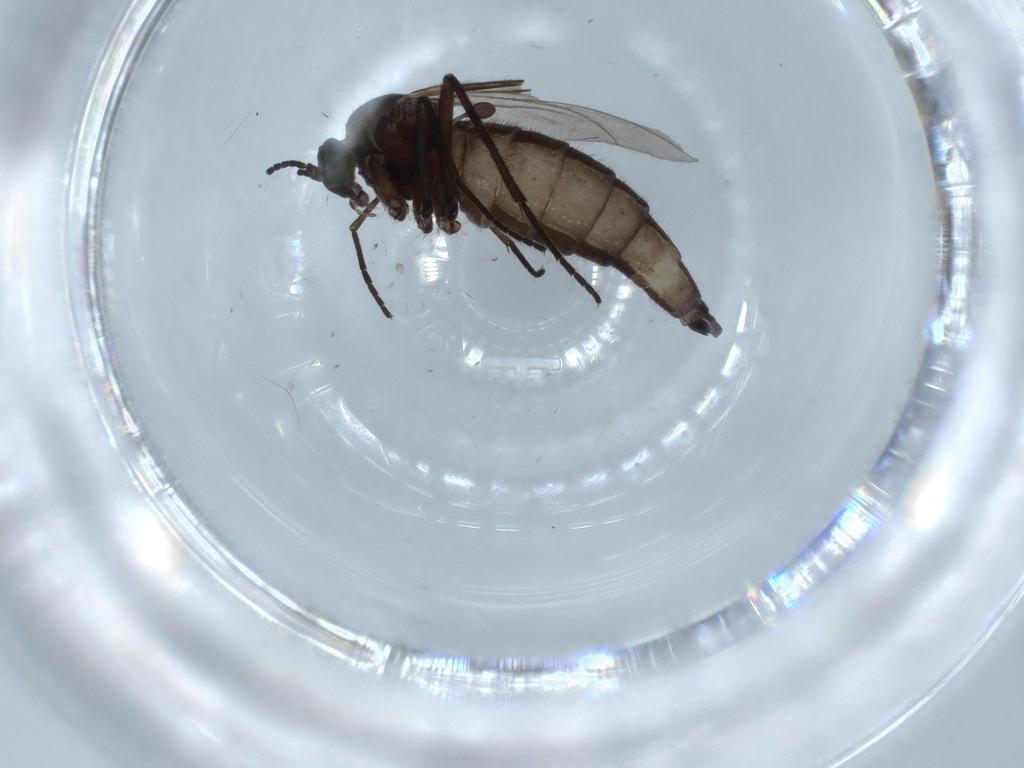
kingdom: Animalia
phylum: Arthropoda
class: Insecta
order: Diptera
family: Sciaridae
